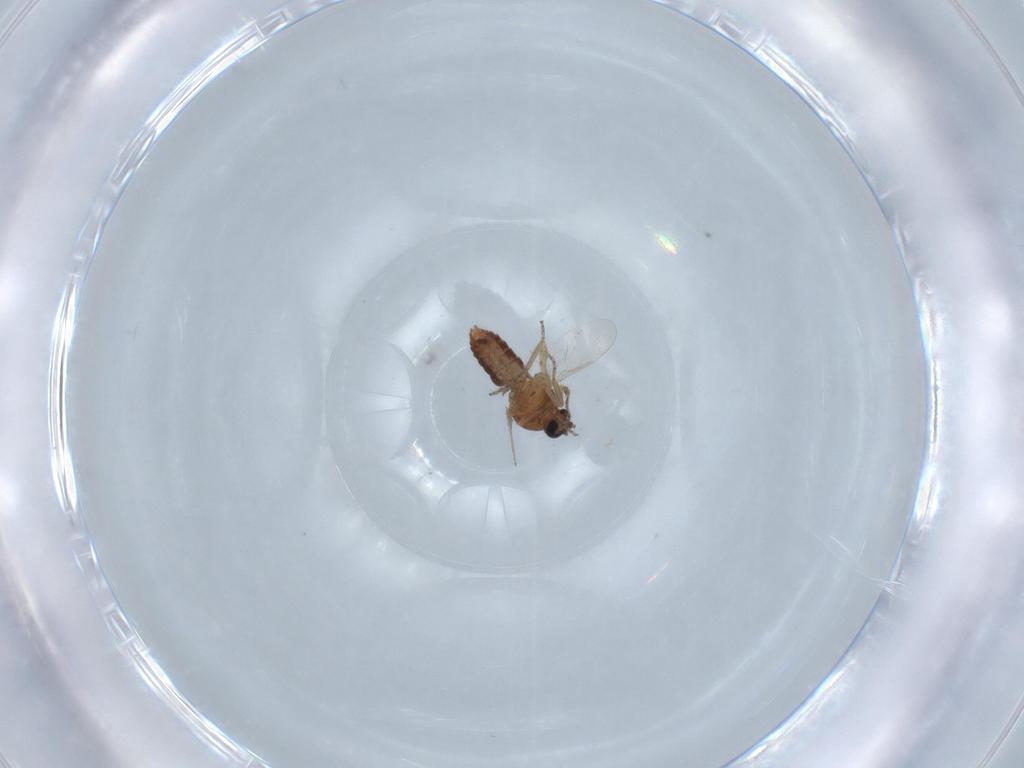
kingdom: Animalia
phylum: Arthropoda
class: Insecta
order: Diptera
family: Ceratopogonidae
